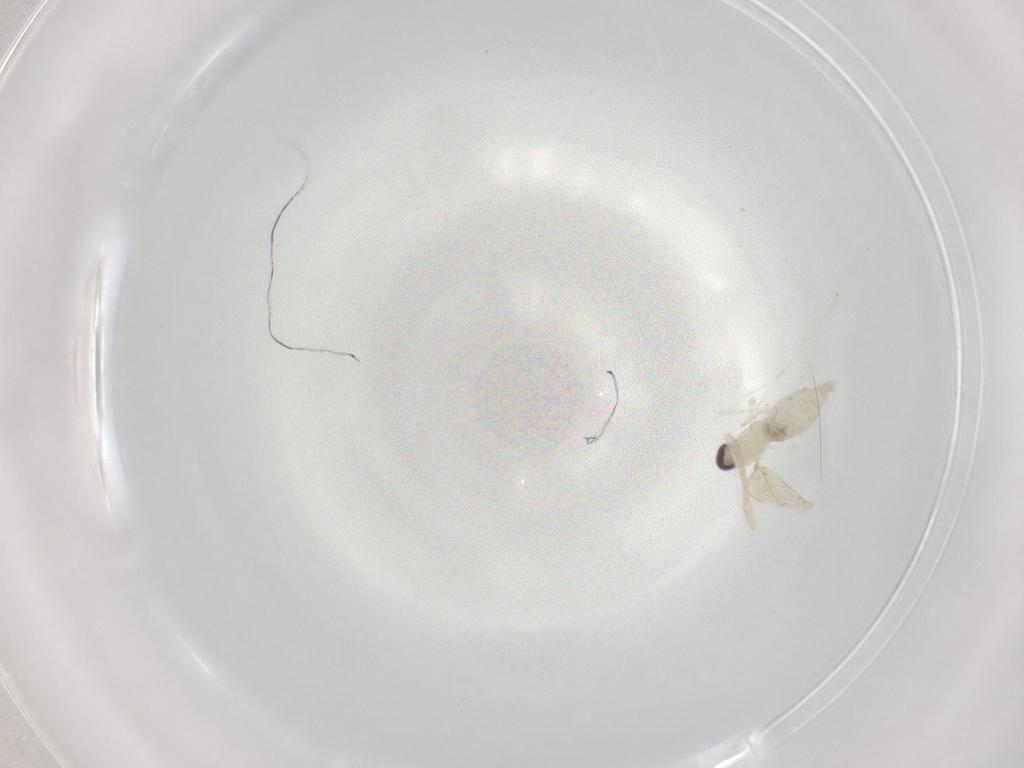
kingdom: Animalia
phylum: Arthropoda
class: Insecta
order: Diptera
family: Cecidomyiidae
